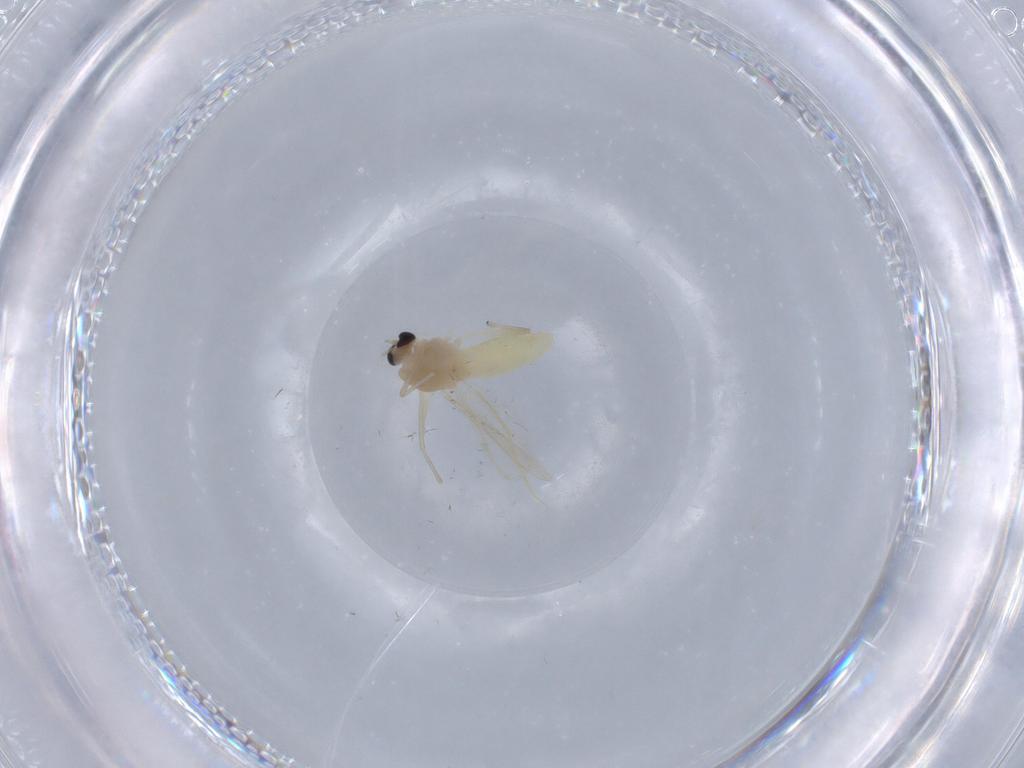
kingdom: Animalia
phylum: Arthropoda
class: Insecta
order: Diptera
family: Chironomidae
